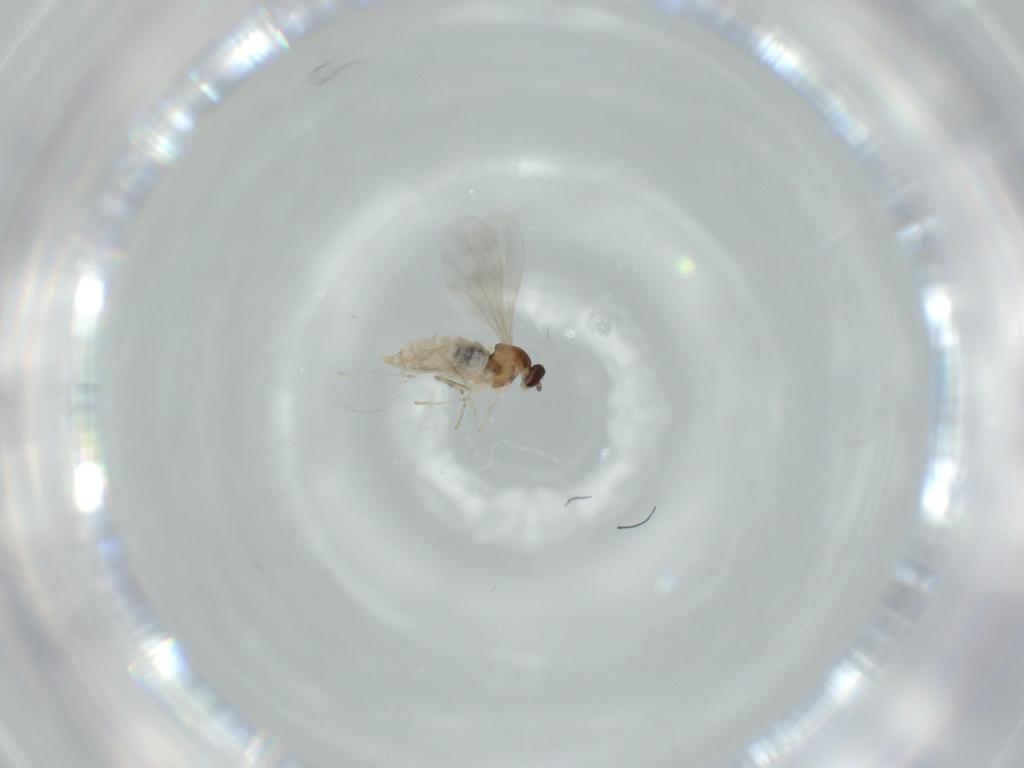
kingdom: Animalia
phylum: Arthropoda
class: Insecta
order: Diptera
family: Cecidomyiidae
